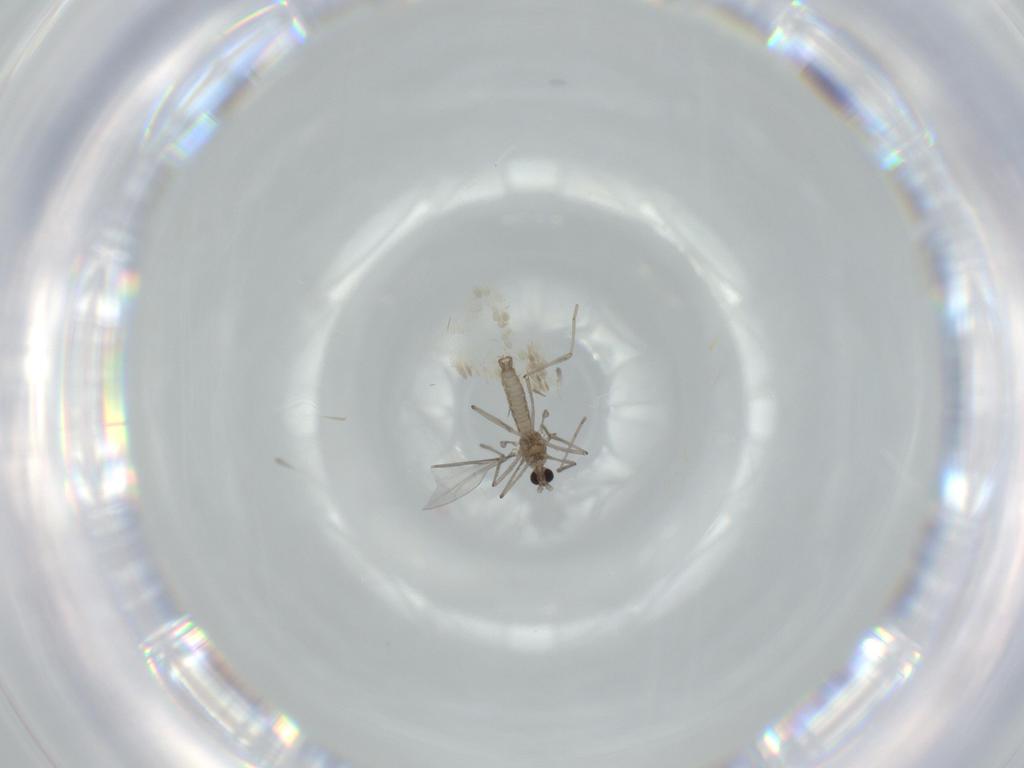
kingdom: Animalia
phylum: Arthropoda
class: Insecta
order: Diptera
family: Cecidomyiidae
